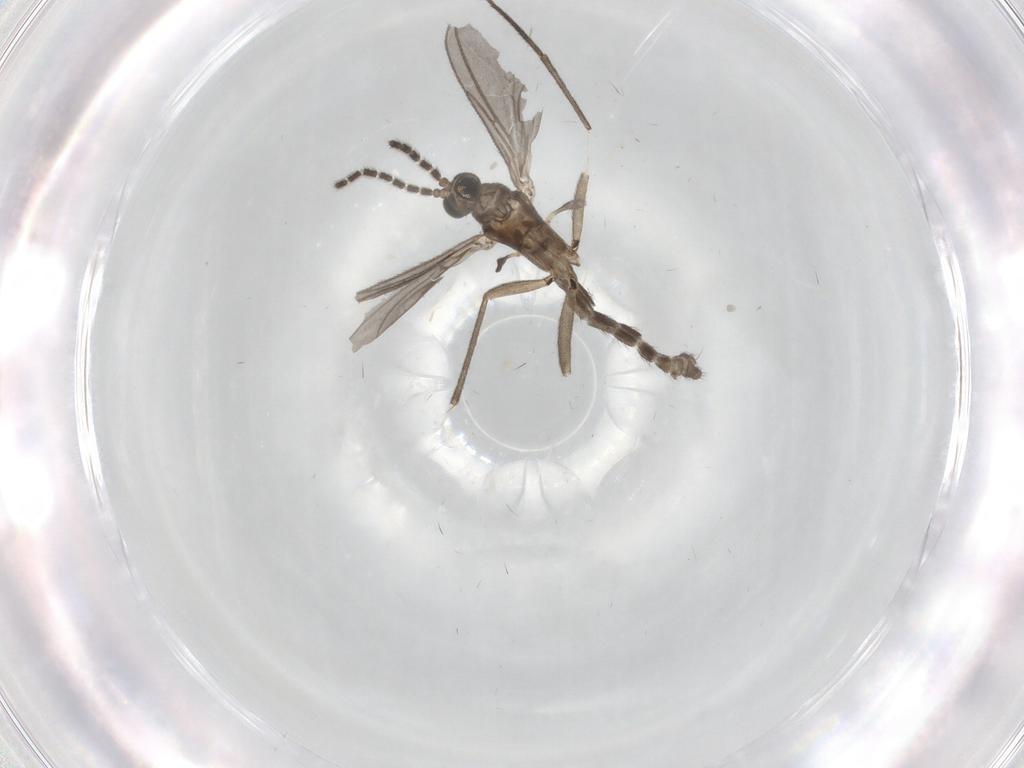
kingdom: Animalia
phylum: Arthropoda
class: Insecta
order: Diptera
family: Sciaridae
